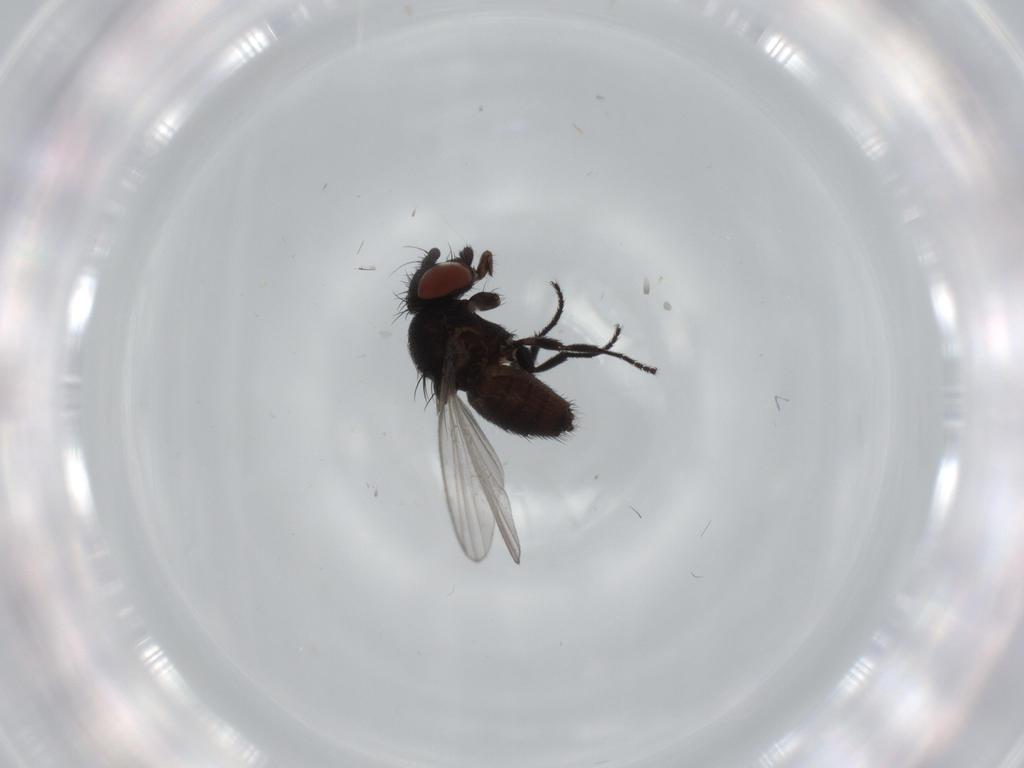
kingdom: Animalia
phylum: Arthropoda
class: Insecta
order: Diptera
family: Milichiidae
